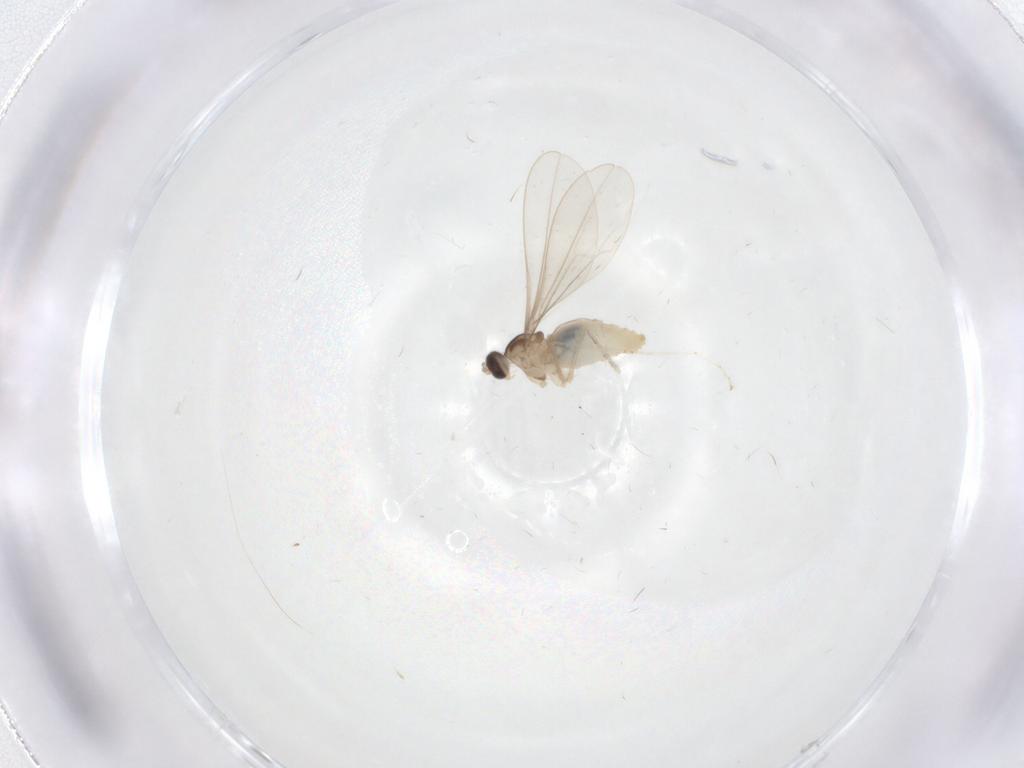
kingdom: Animalia
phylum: Arthropoda
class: Insecta
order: Diptera
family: Cecidomyiidae
